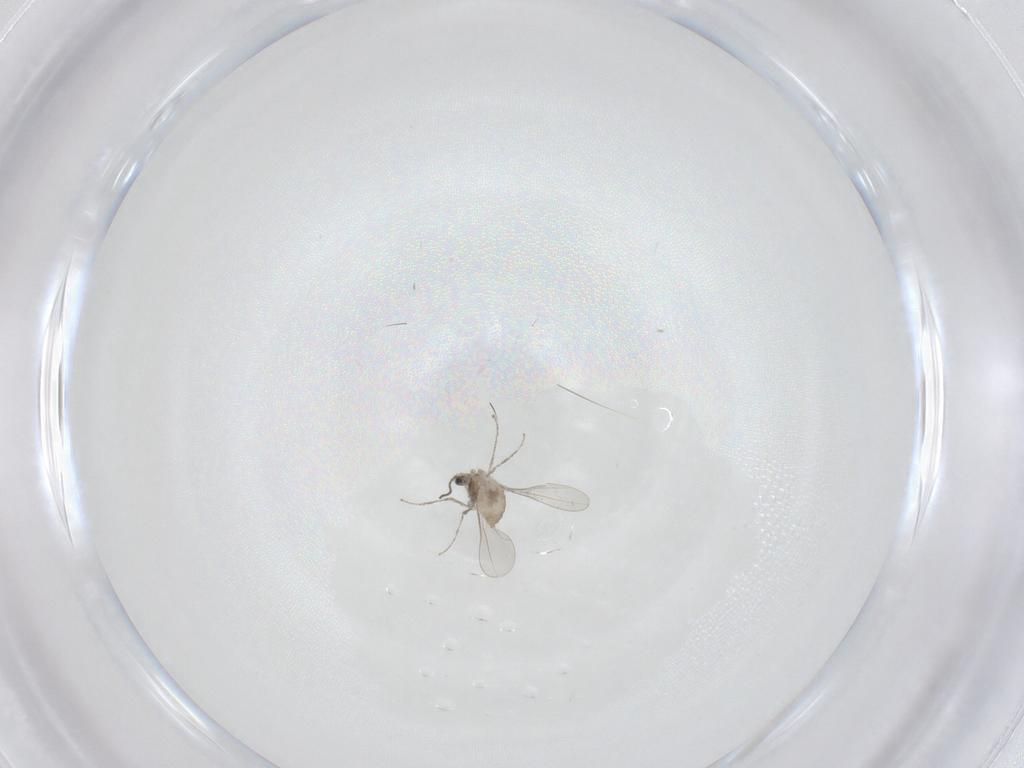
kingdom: Animalia
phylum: Arthropoda
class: Insecta
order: Diptera
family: Cecidomyiidae
